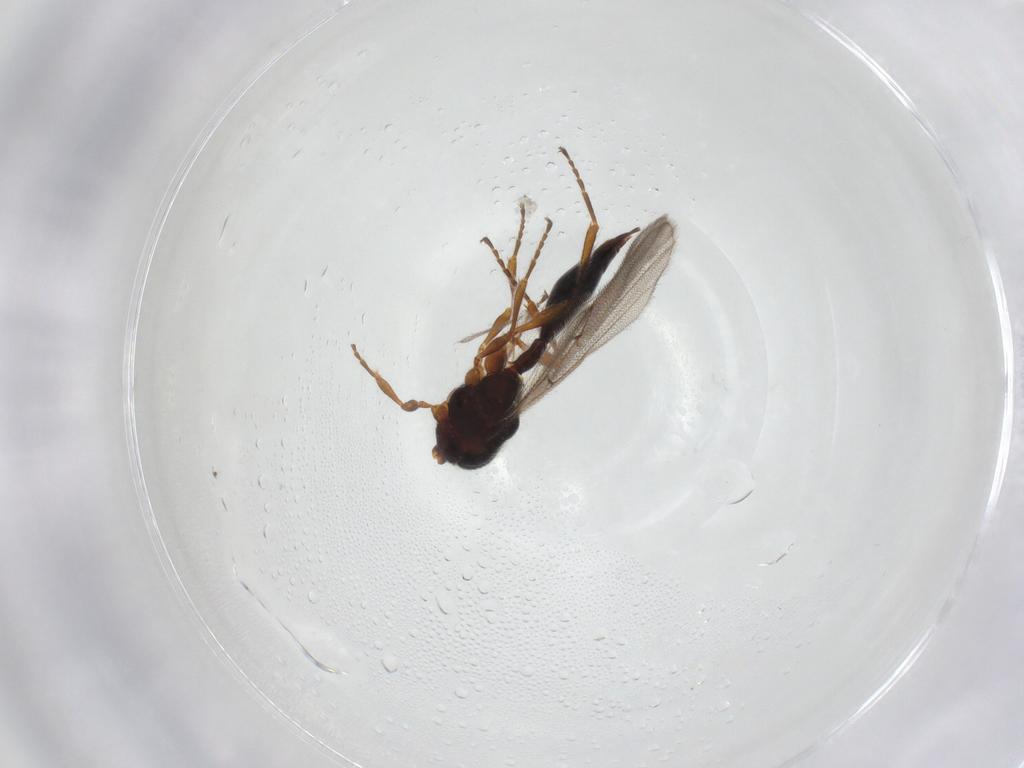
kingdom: Animalia
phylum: Arthropoda
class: Insecta
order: Hymenoptera
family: Diapriidae
